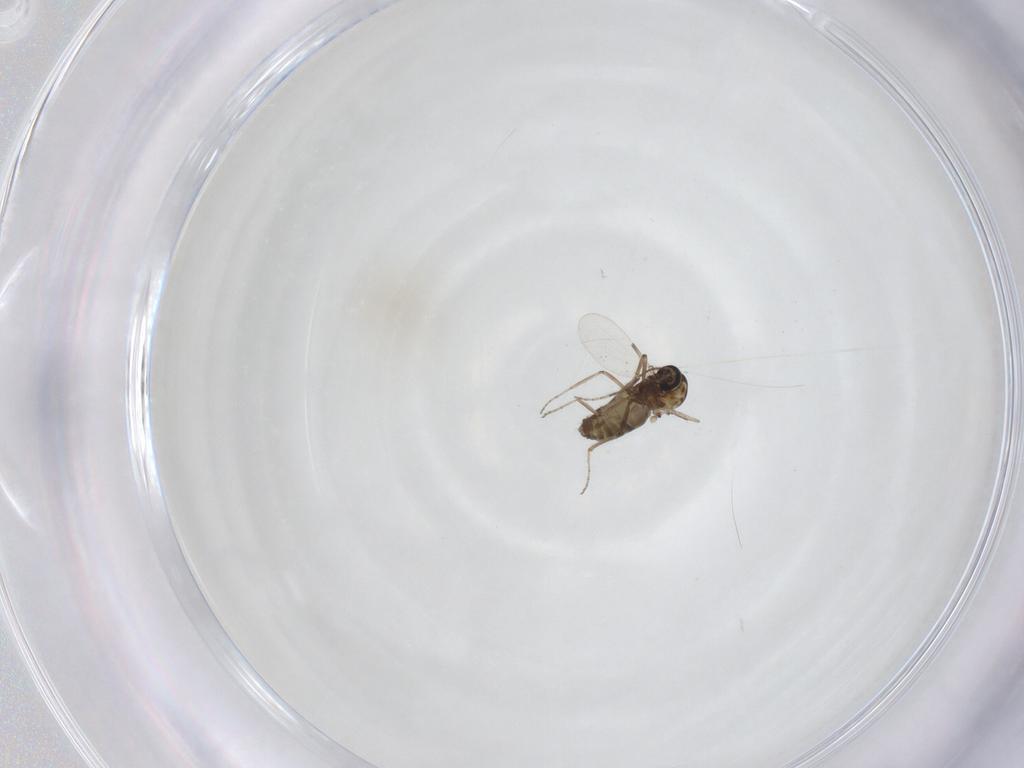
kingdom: Animalia
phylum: Arthropoda
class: Insecta
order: Diptera
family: Ceratopogonidae
